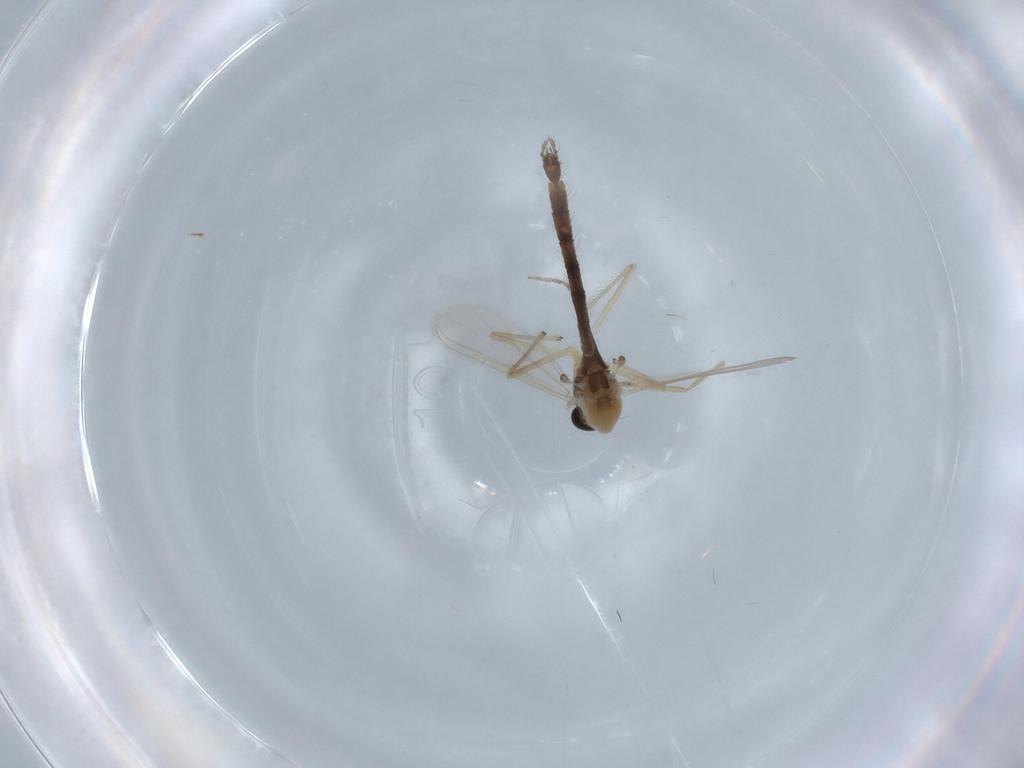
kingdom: Animalia
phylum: Arthropoda
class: Insecta
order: Diptera
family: Chironomidae
